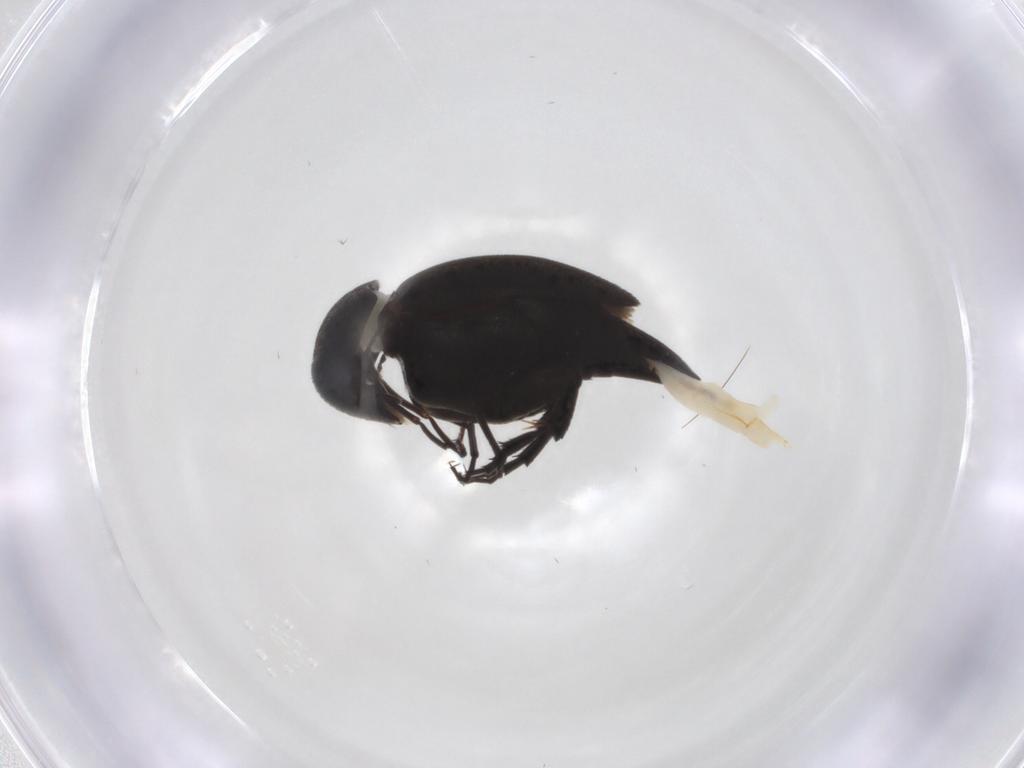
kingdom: Animalia
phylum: Arthropoda
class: Insecta
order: Coleoptera
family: Mordellidae
